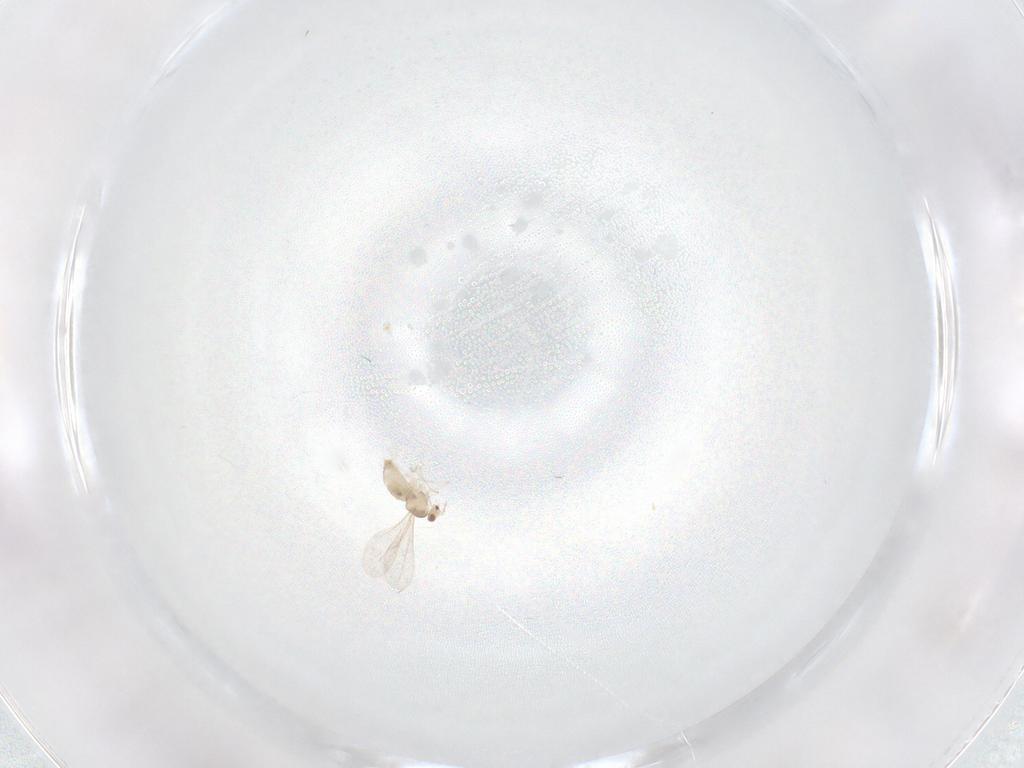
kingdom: Animalia
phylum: Arthropoda
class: Insecta
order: Diptera
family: Cecidomyiidae
